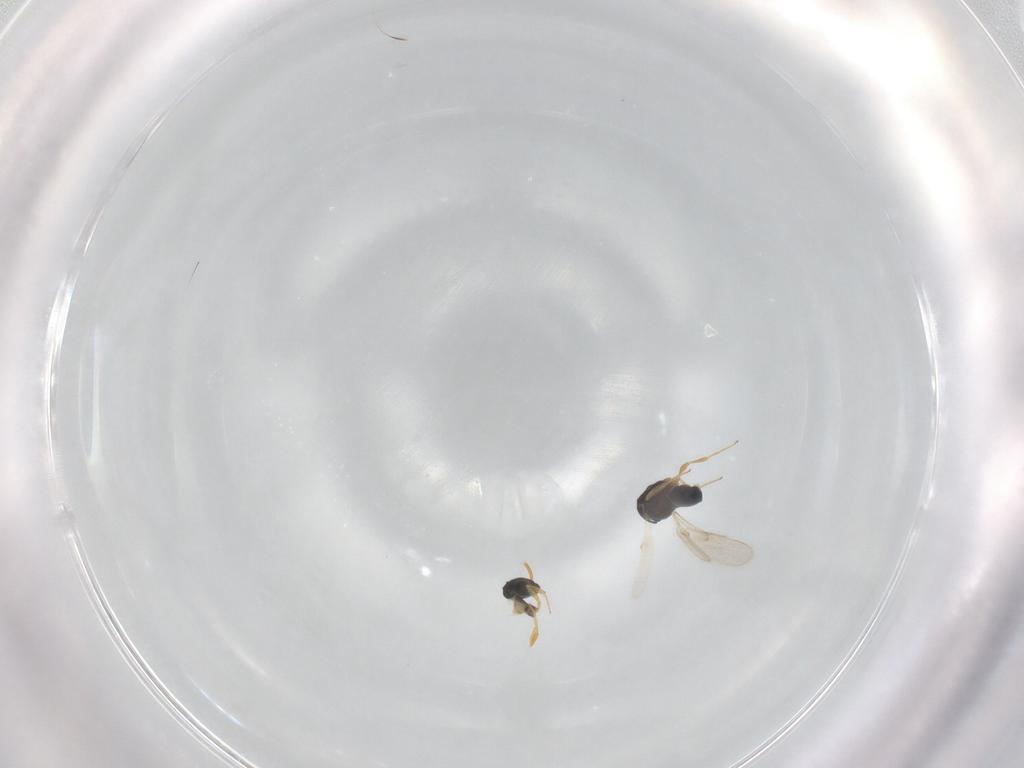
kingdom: Animalia
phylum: Arthropoda
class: Insecta
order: Hymenoptera
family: Scelionidae
